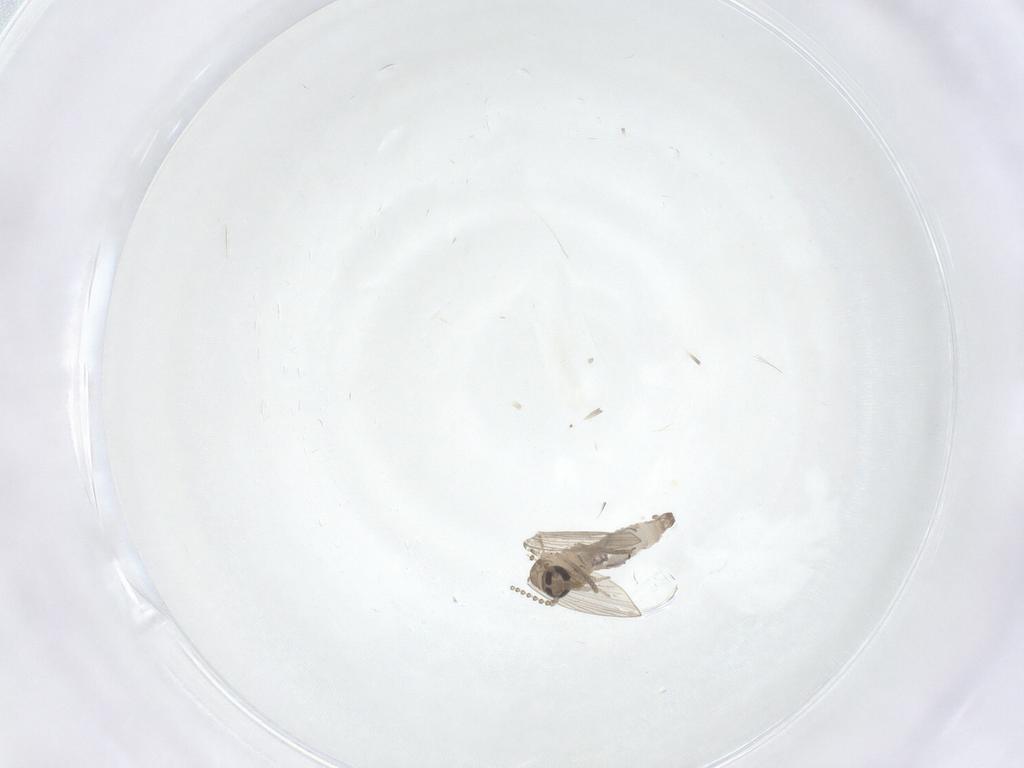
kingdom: Animalia
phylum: Arthropoda
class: Insecta
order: Diptera
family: Psychodidae
